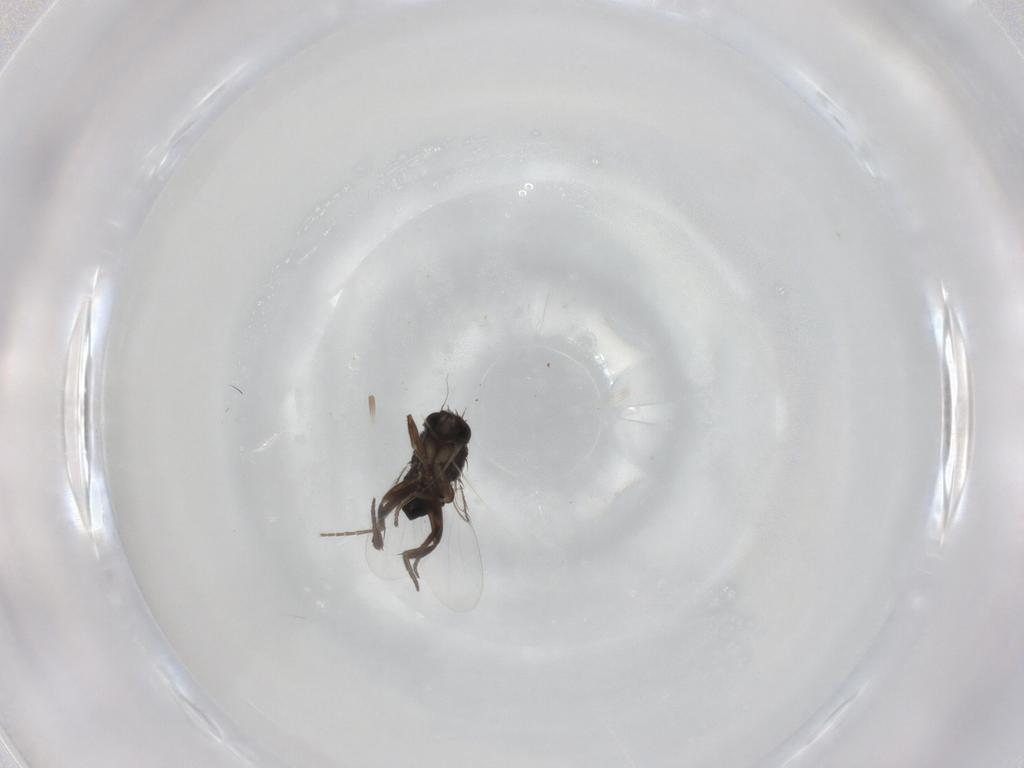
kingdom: Animalia
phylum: Arthropoda
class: Insecta
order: Diptera
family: Phoridae
